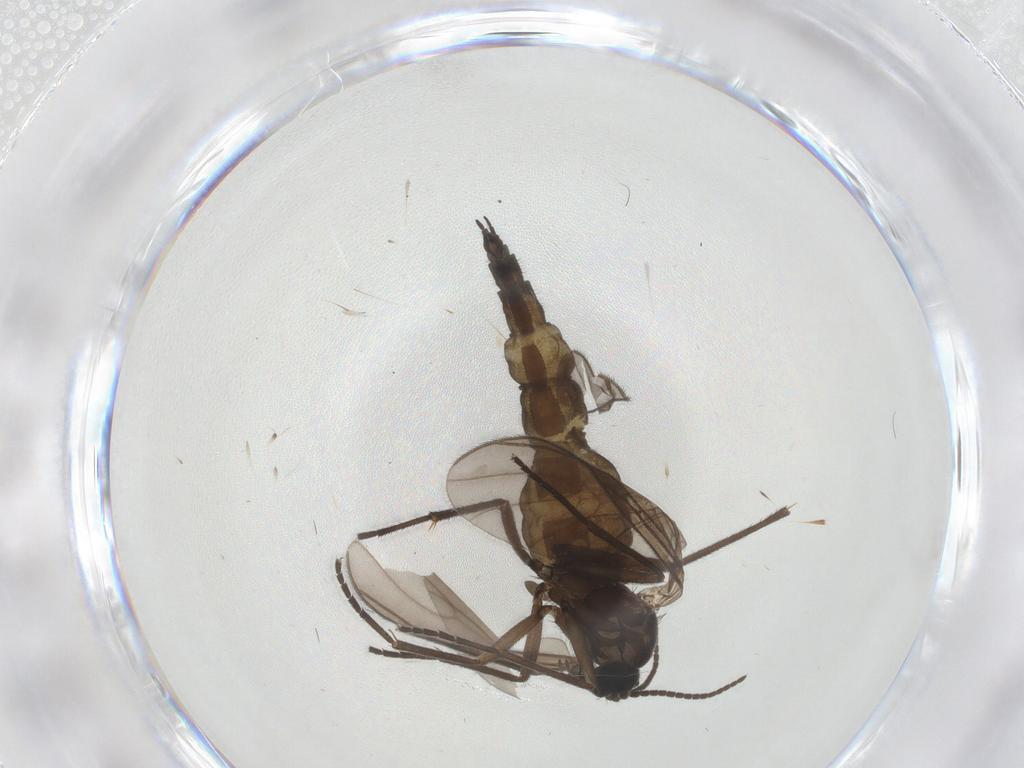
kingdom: Animalia
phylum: Arthropoda
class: Insecta
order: Diptera
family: Sciaridae
